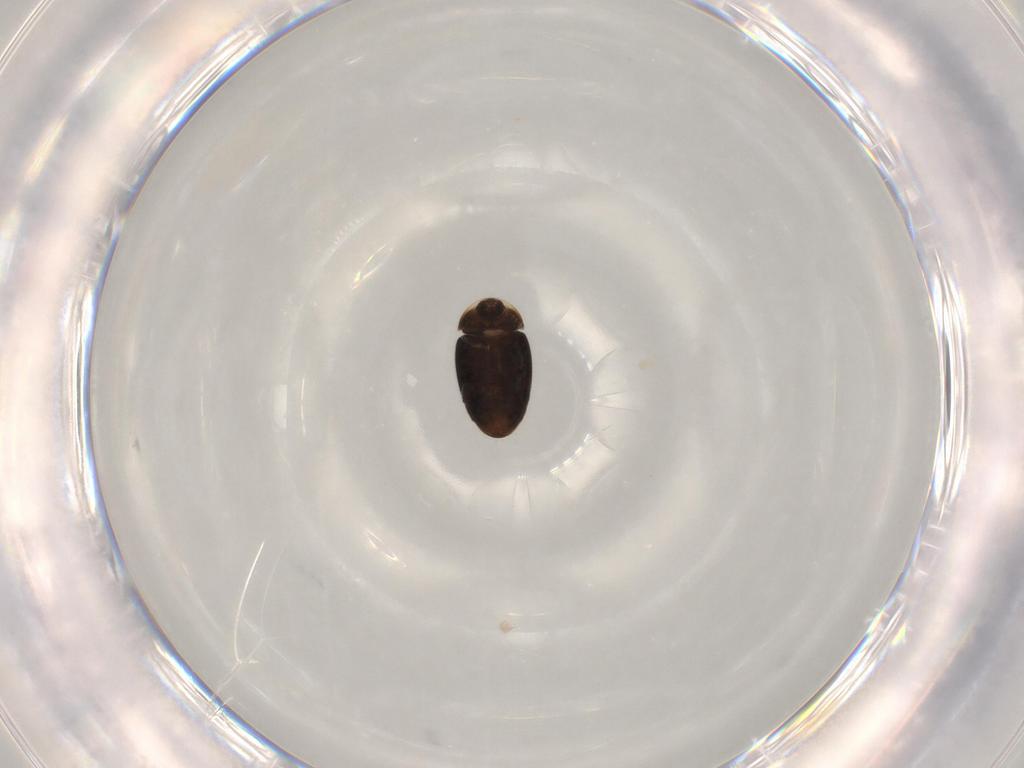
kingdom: Animalia
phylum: Arthropoda
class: Insecta
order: Coleoptera
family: Corylophidae
